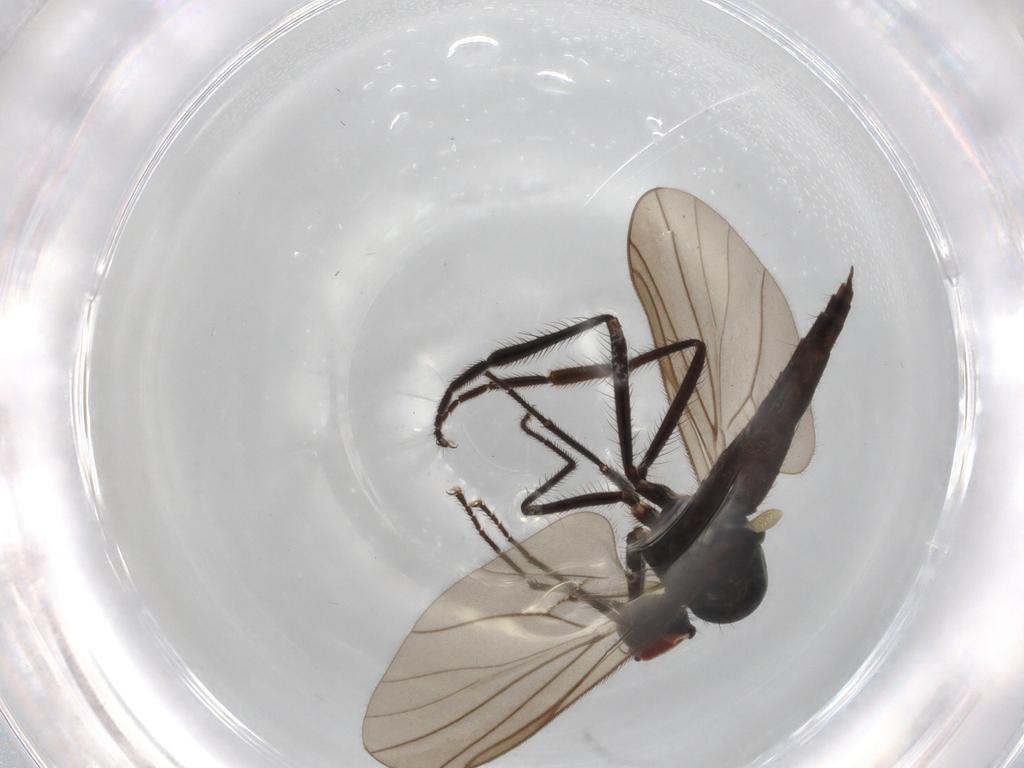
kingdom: Animalia
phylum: Arthropoda
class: Insecta
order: Diptera
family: Hybotidae
